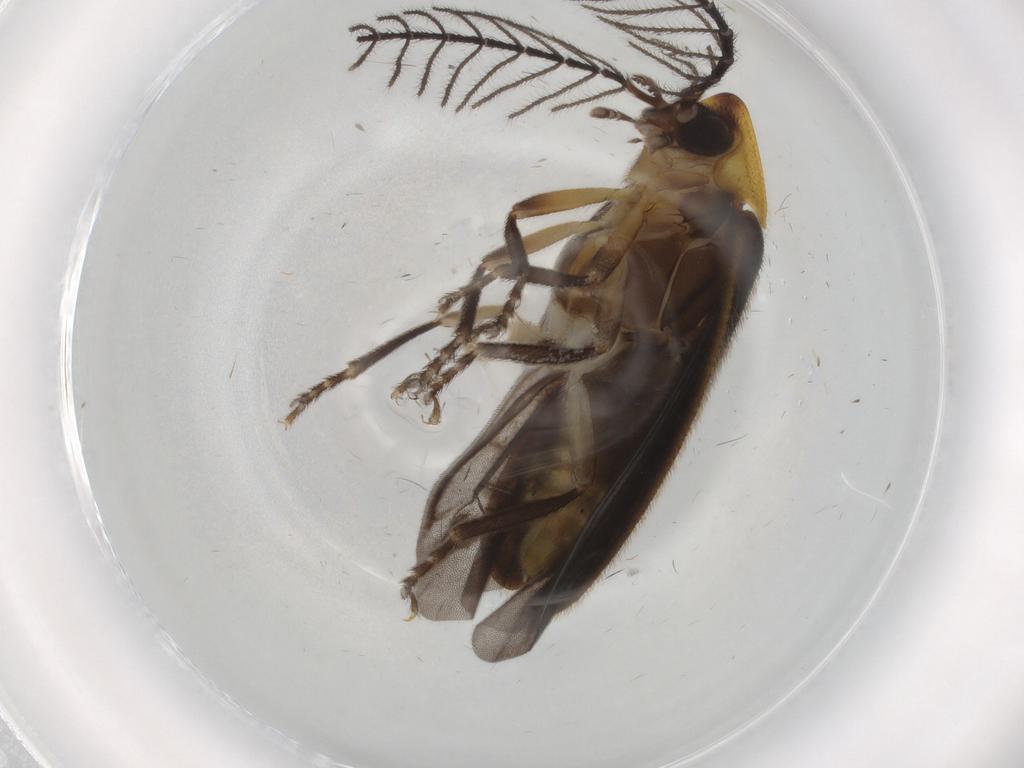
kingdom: Animalia
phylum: Arthropoda
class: Insecta
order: Coleoptera
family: Lampyridae
